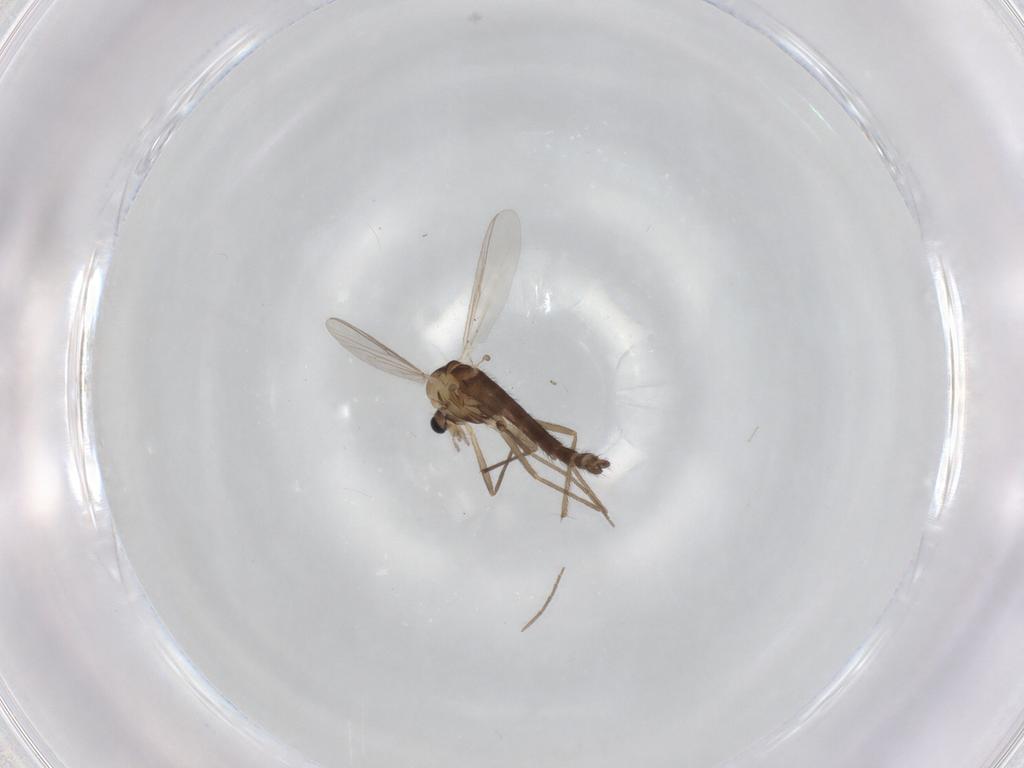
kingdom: Animalia
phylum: Arthropoda
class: Insecta
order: Diptera
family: Chironomidae
